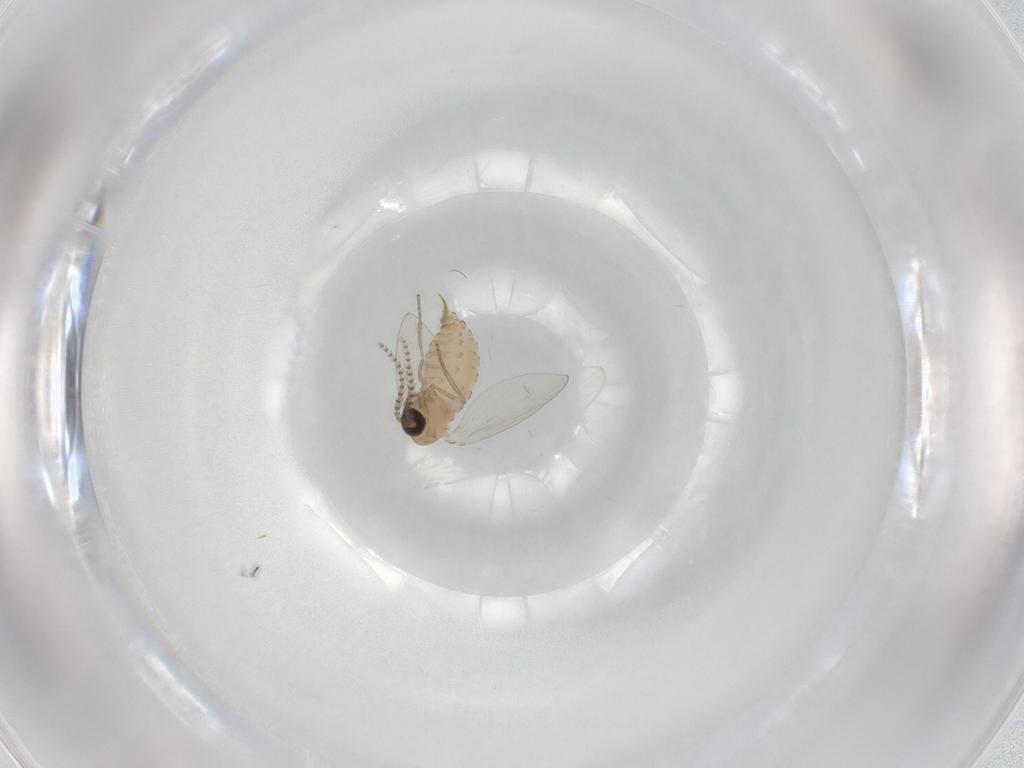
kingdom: Animalia
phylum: Arthropoda
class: Insecta
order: Diptera
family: Psychodidae
